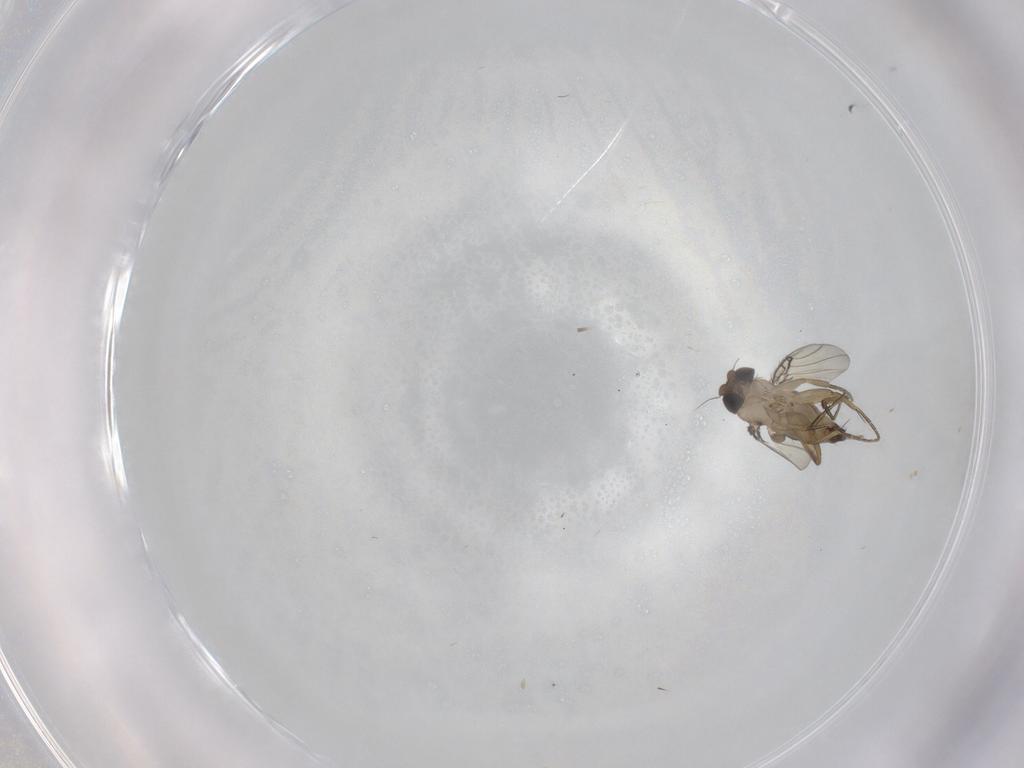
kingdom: Animalia
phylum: Arthropoda
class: Insecta
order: Diptera
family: Phoridae
